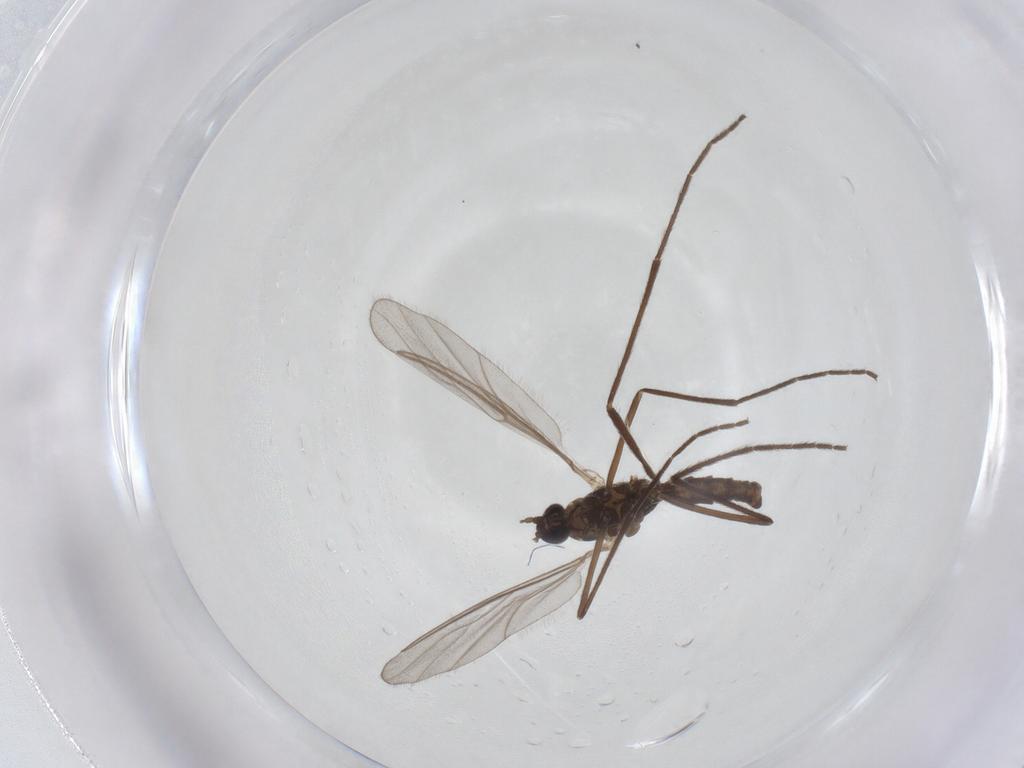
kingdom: Animalia
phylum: Arthropoda
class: Insecta
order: Diptera
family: Cecidomyiidae
